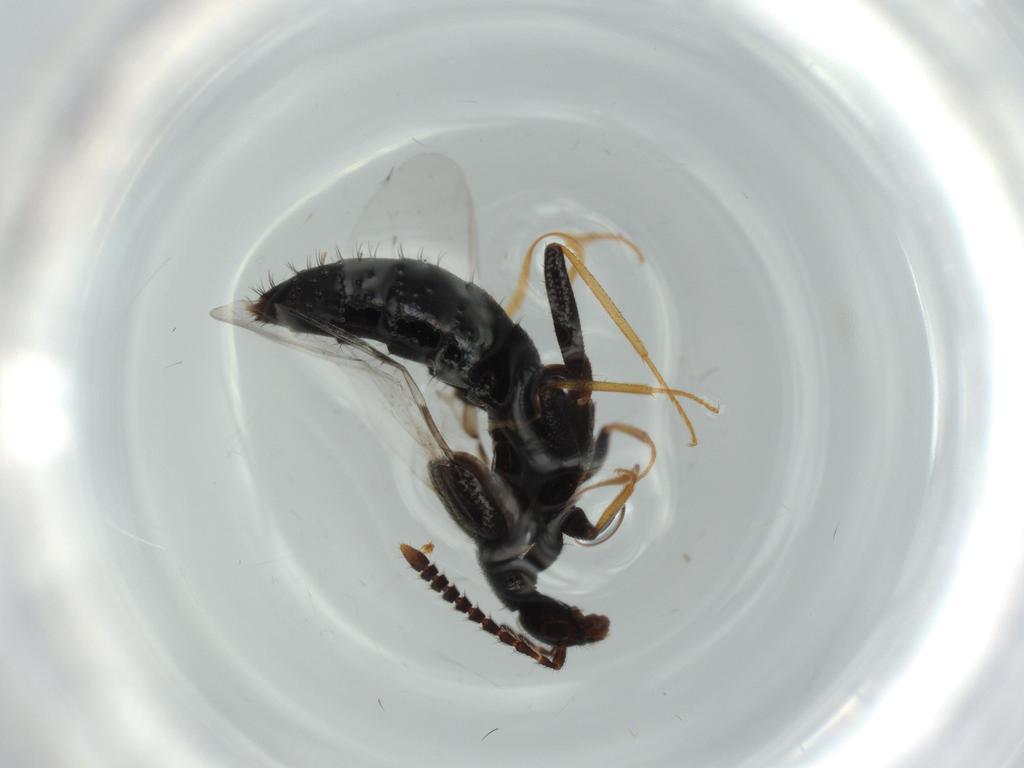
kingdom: Animalia
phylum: Arthropoda
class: Insecta
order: Coleoptera
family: Staphylinidae
